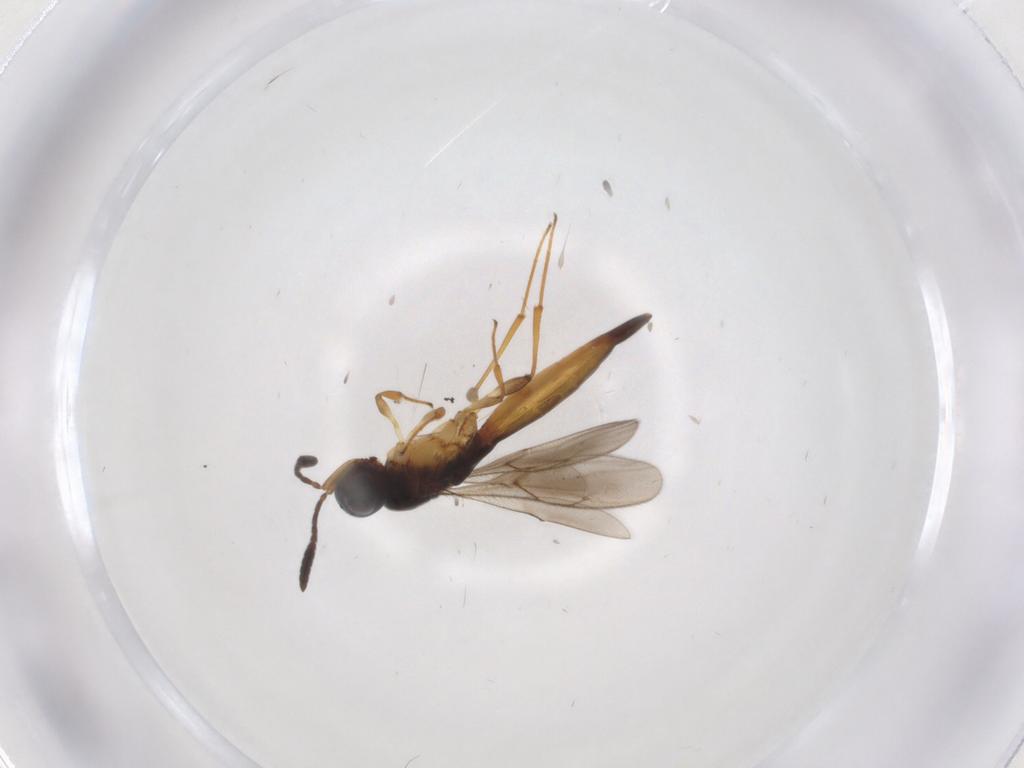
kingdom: Animalia
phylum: Arthropoda
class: Insecta
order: Hymenoptera
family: Scelionidae
